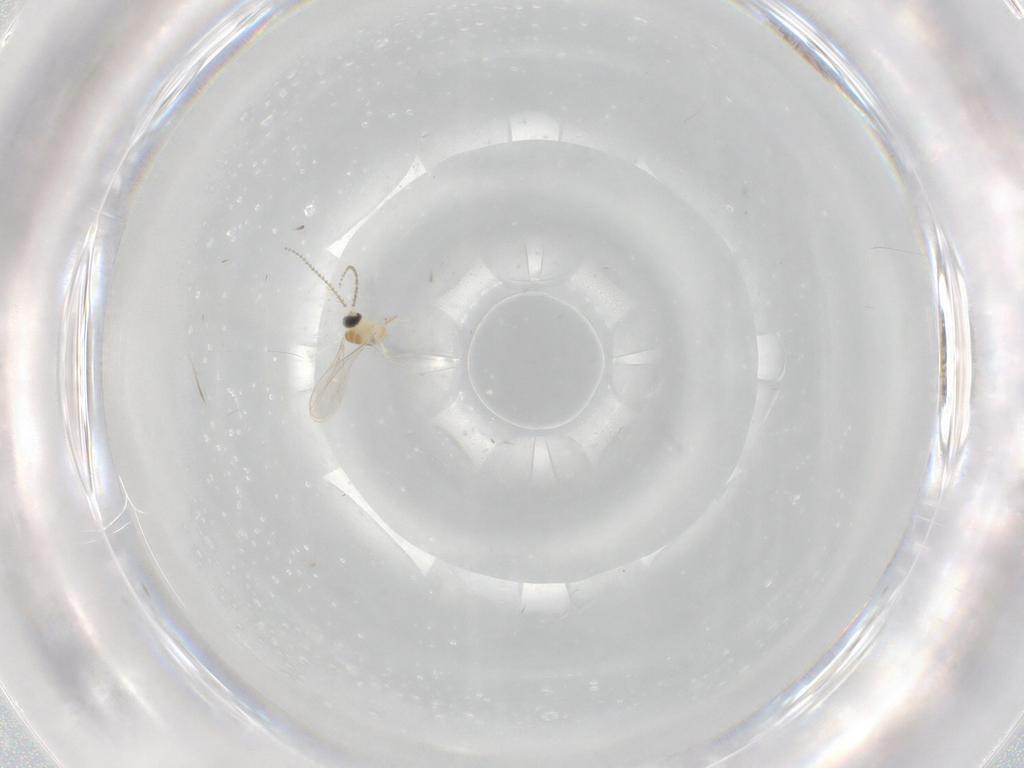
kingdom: Animalia
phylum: Arthropoda
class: Insecta
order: Diptera
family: Cecidomyiidae
